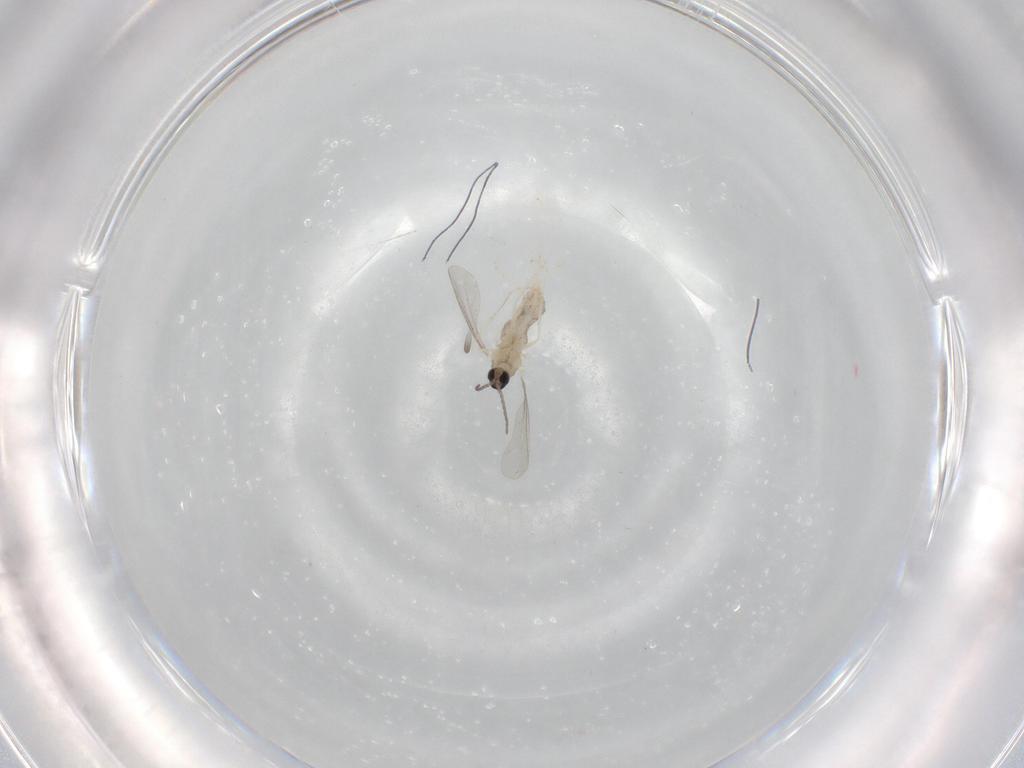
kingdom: Animalia
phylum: Arthropoda
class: Insecta
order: Diptera
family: Cecidomyiidae
